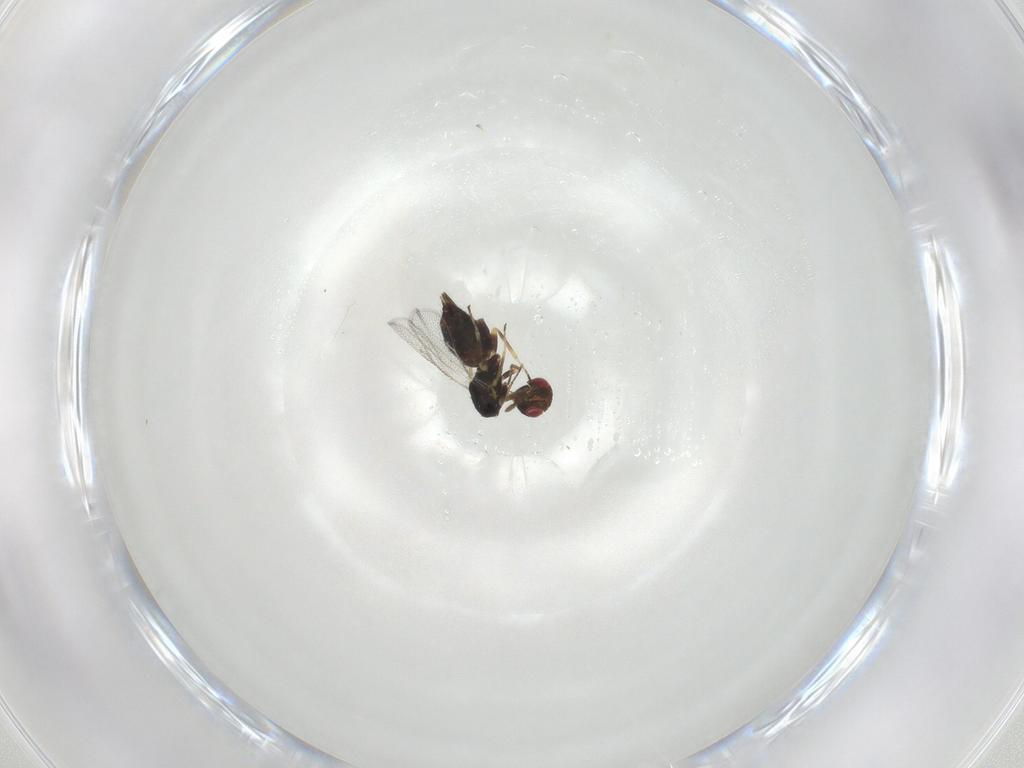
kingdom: Animalia
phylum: Arthropoda
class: Insecta
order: Hymenoptera
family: Eulophidae
